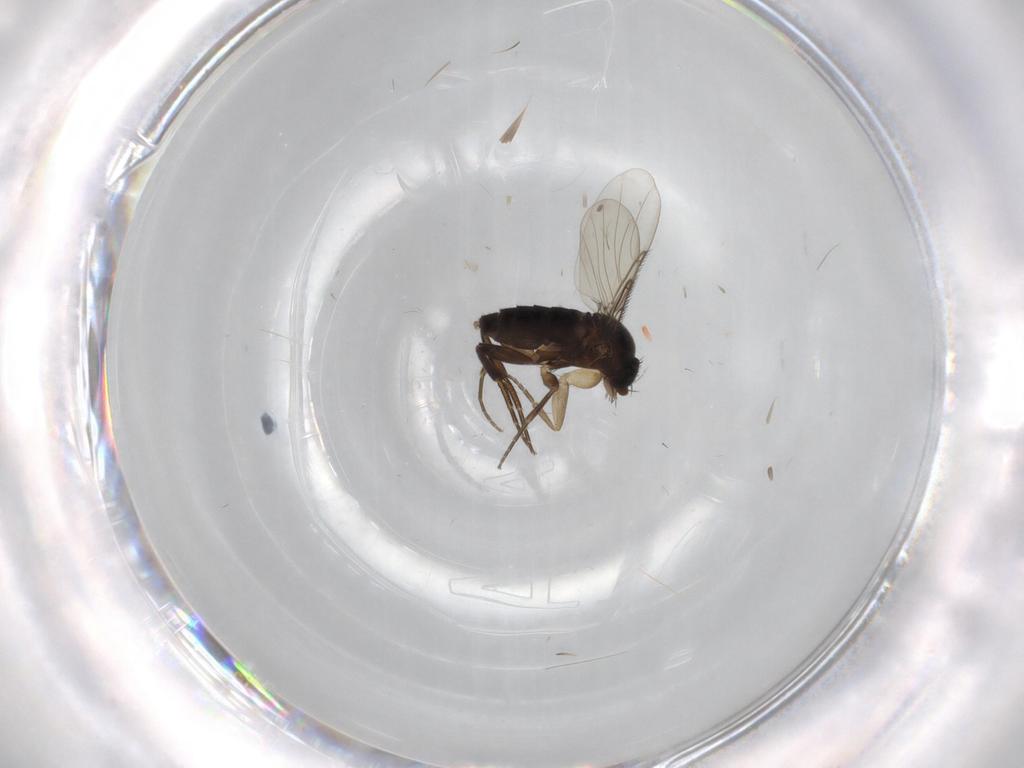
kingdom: Animalia
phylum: Arthropoda
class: Insecta
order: Diptera
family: Phoridae
